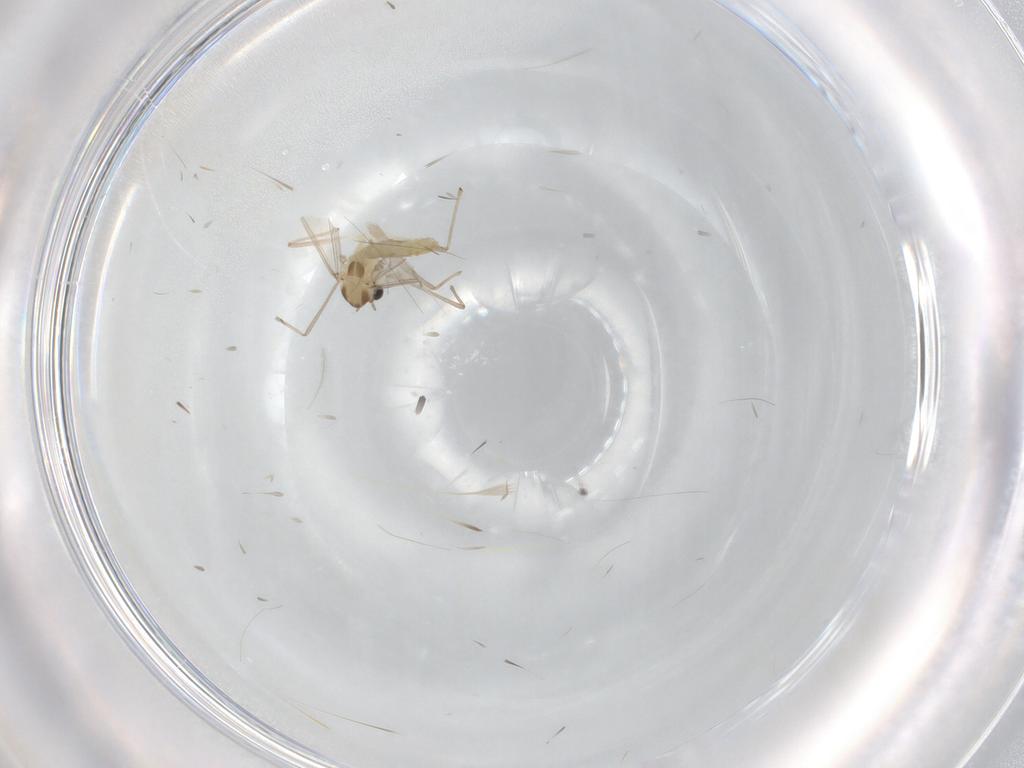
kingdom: Animalia
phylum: Arthropoda
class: Insecta
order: Diptera
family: Chironomidae
